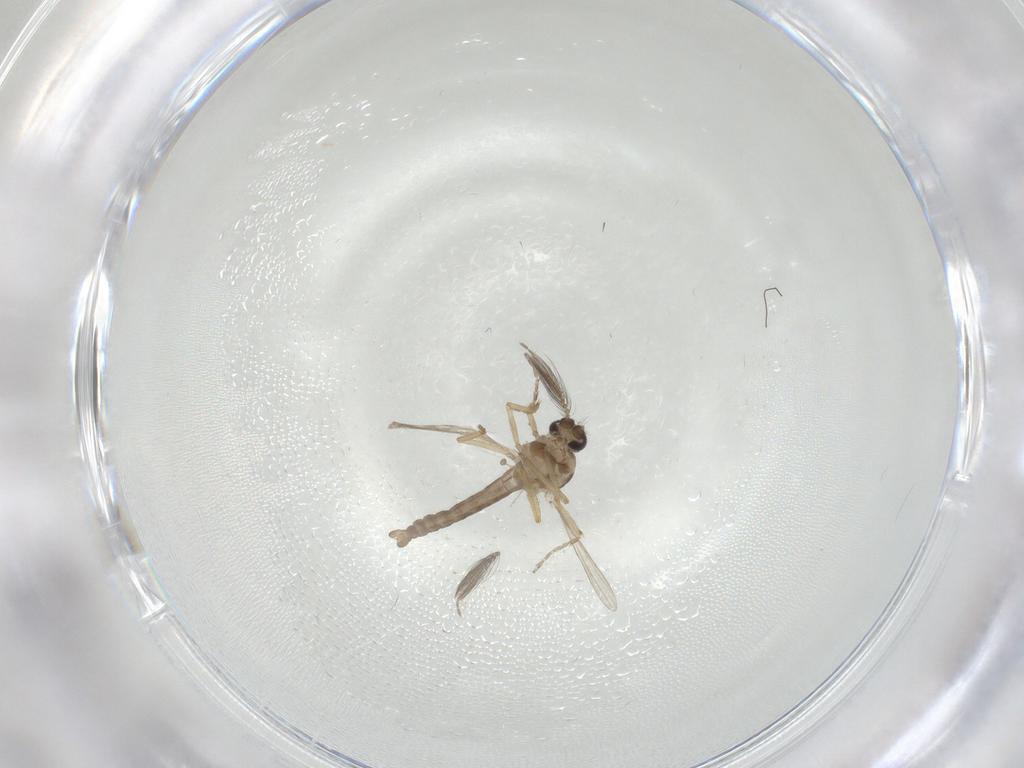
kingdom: Animalia
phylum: Arthropoda
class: Insecta
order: Diptera
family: Ceratopogonidae
